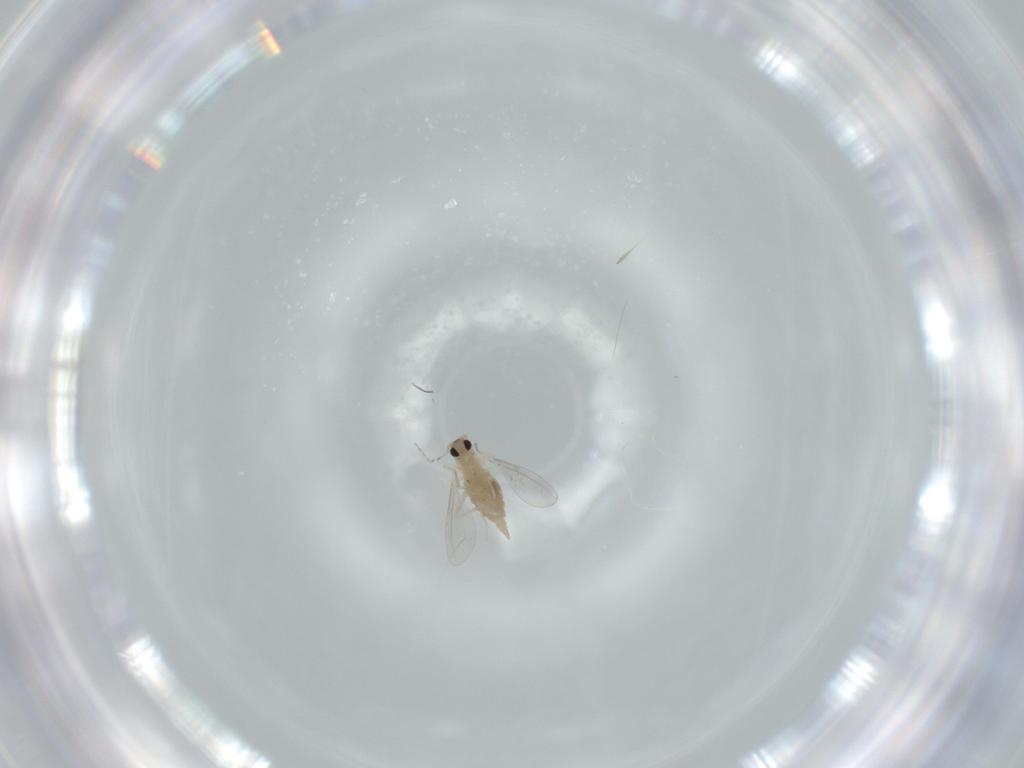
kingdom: Animalia
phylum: Arthropoda
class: Insecta
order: Diptera
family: Cecidomyiidae
